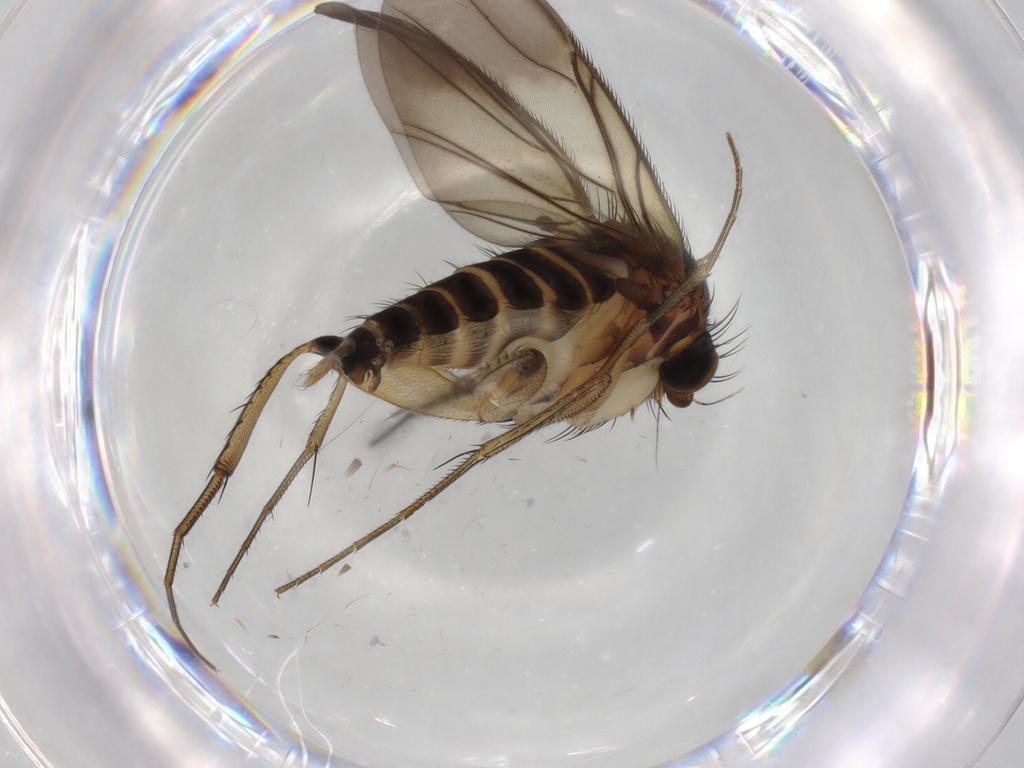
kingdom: Animalia
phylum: Arthropoda
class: Insecta
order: Diptera
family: Phoridae
